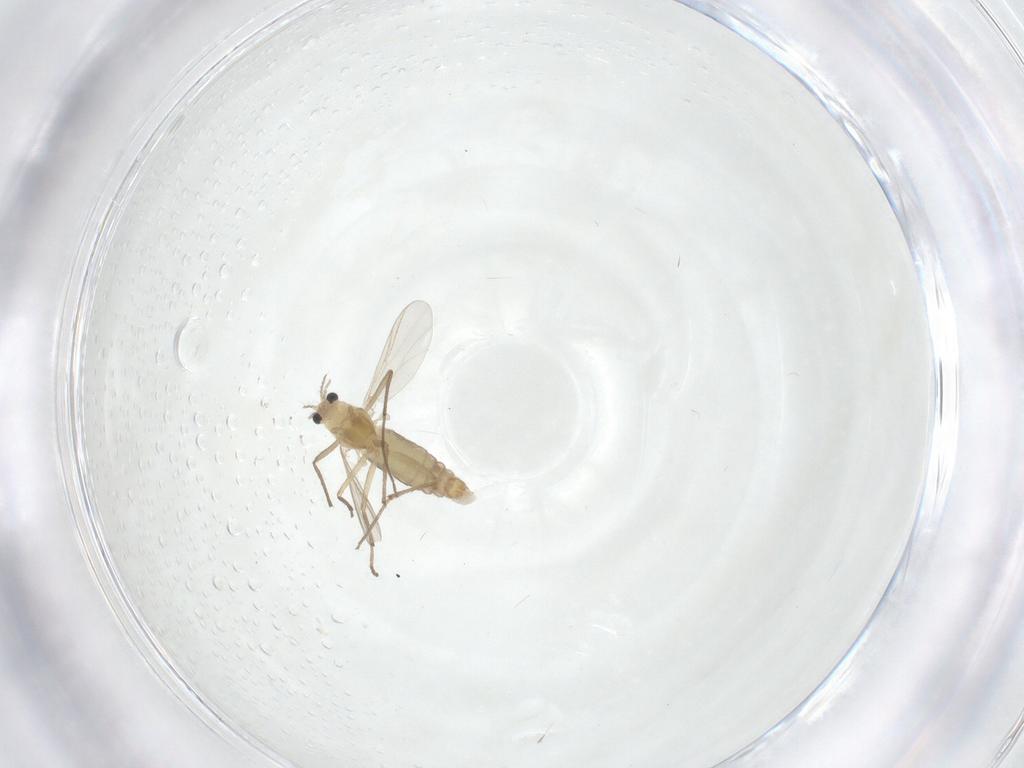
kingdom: Animalia
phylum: Arthropoda
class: Insecta
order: Diptera
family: Chironomidae
